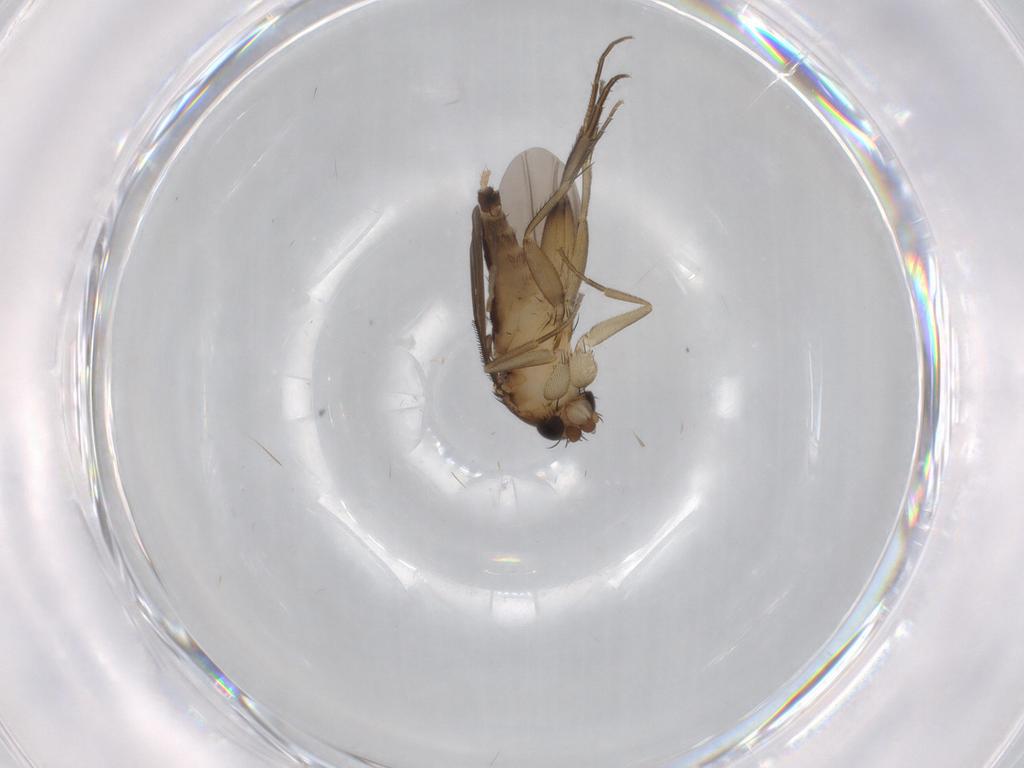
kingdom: Animalia
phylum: Arthropoda
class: Insecta
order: Diptera
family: Phoridae
